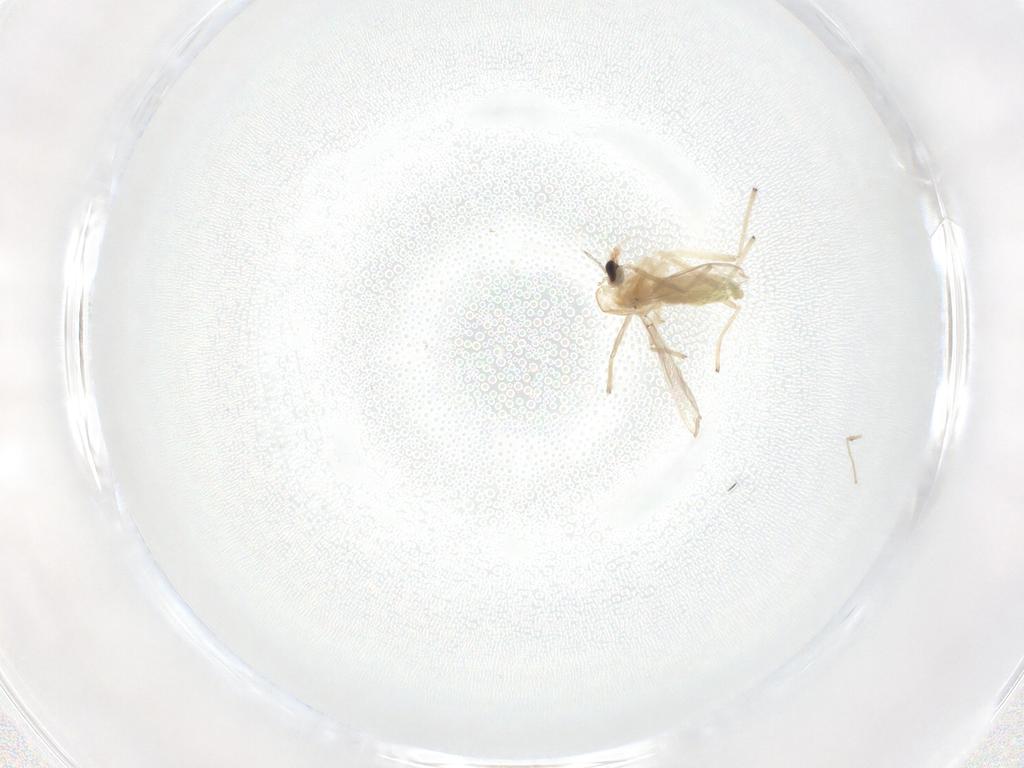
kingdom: Animalia
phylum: Arthropoda
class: Insecta
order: Diptera
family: Chironomidae
